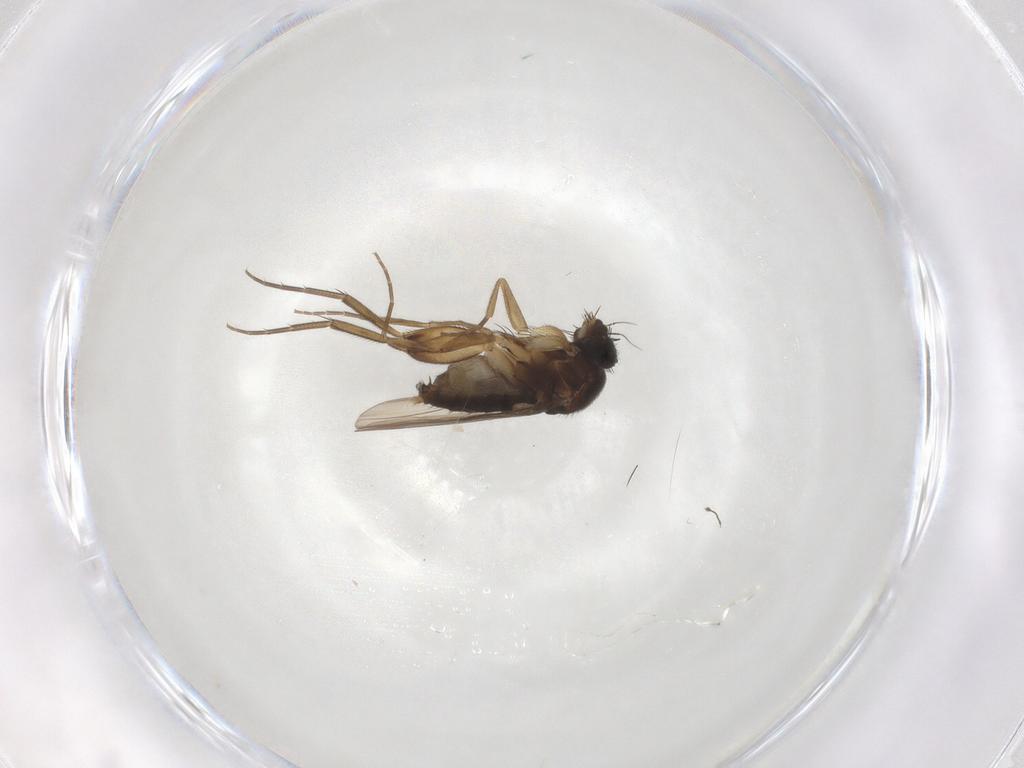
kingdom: Animalia
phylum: Arthropoda
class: Insecta
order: Diptera
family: Phoridae
